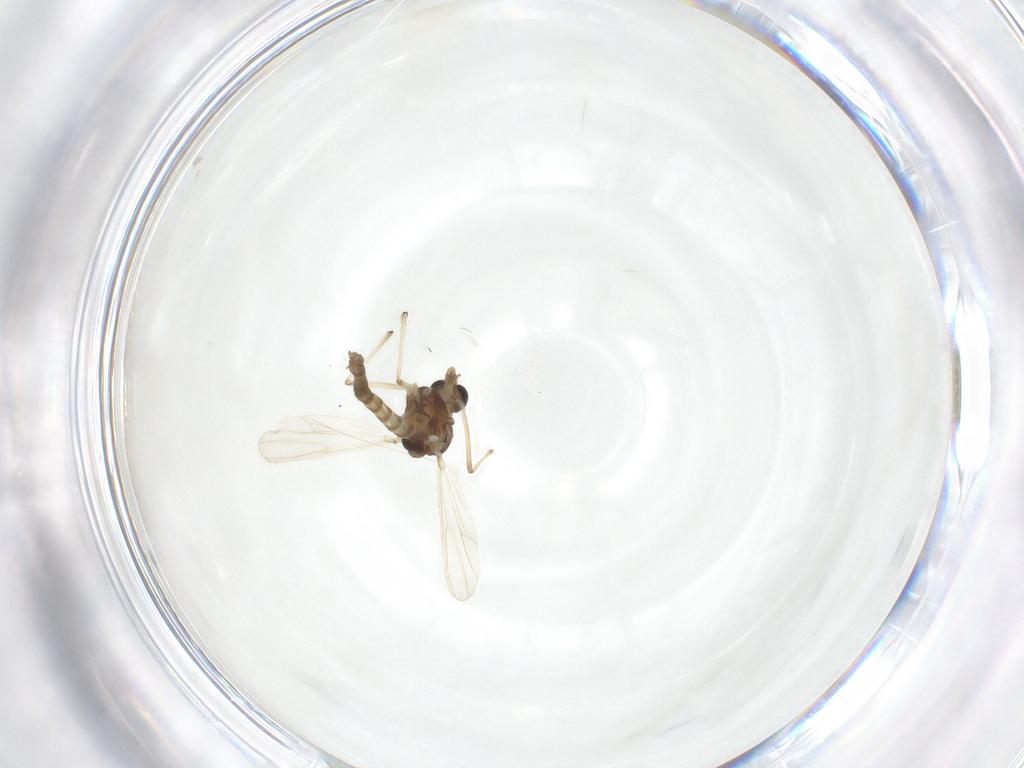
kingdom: Animalia
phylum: Arthropoda
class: Insecta
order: Diptera
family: Chironomidae
